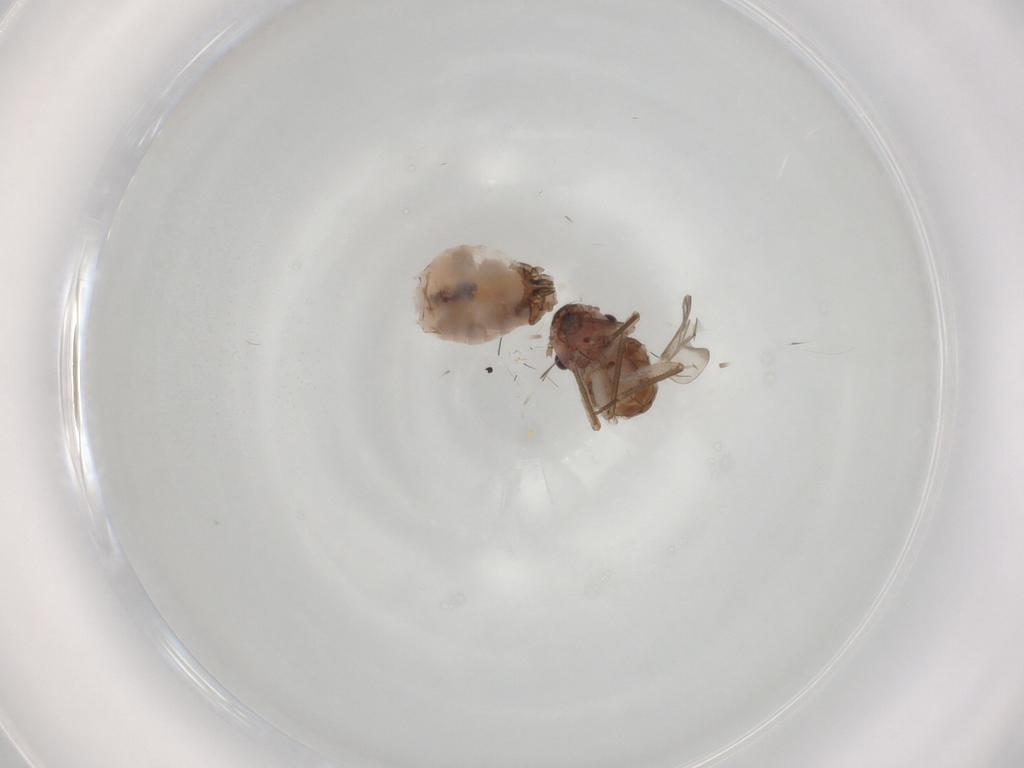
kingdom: Animalia
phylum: Arthropoda
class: Insecta
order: Psocodea
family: Peripsocidae
